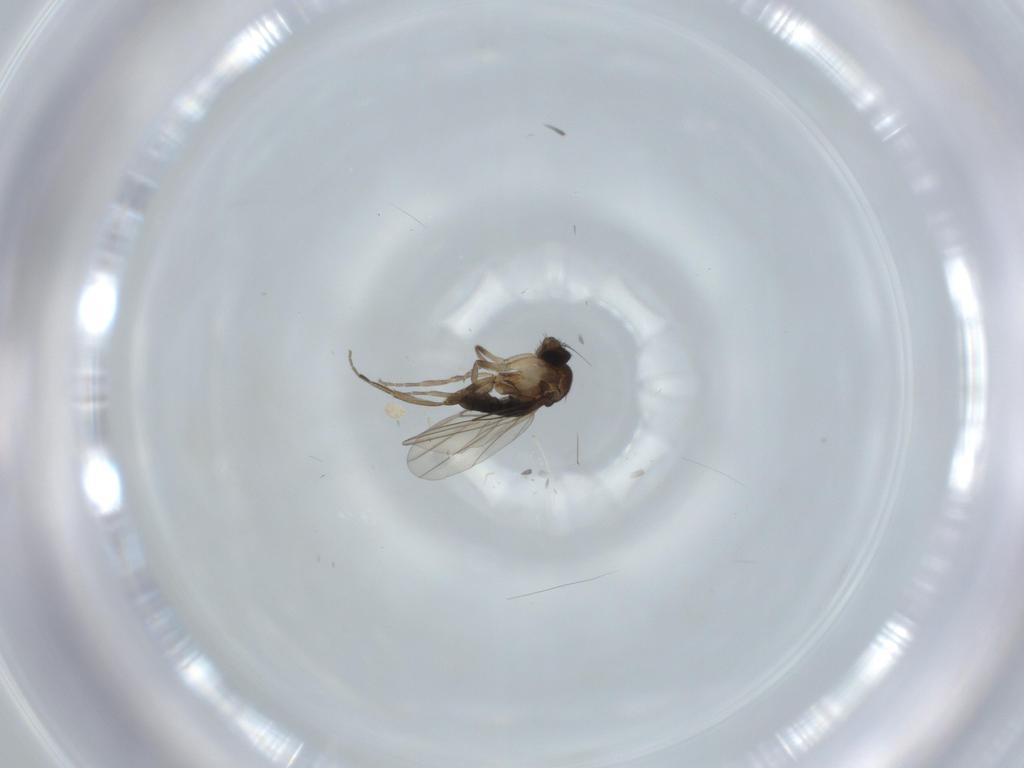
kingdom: Animalia
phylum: Arthropoda
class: Insecta
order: Diptera
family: Phoridae
